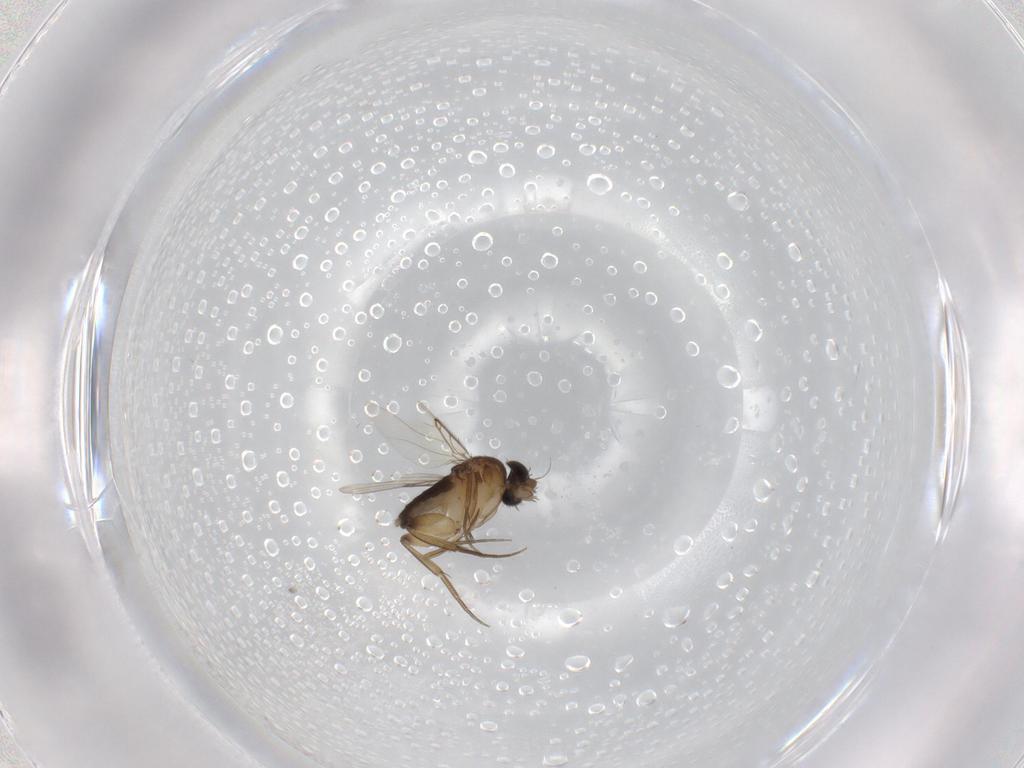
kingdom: Animalia
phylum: Arthropoda
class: Insecta
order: Diptera
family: Phoridae
